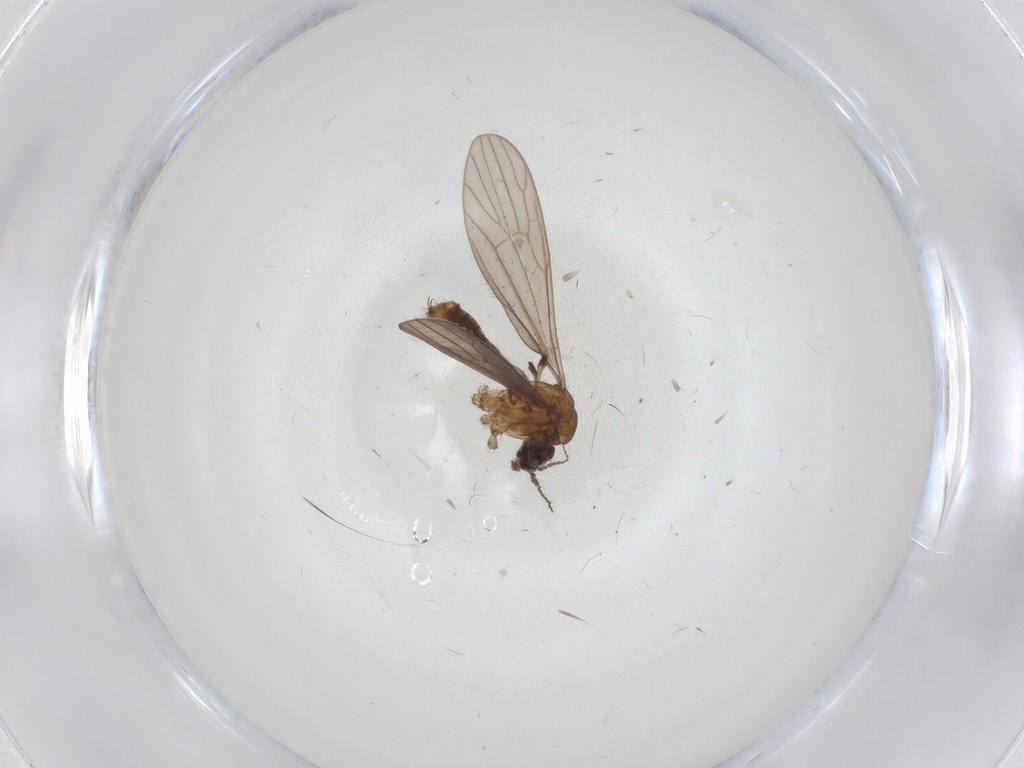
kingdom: Animalia
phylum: Arthropoda
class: Insecta
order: Diptera
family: Limoniidae
